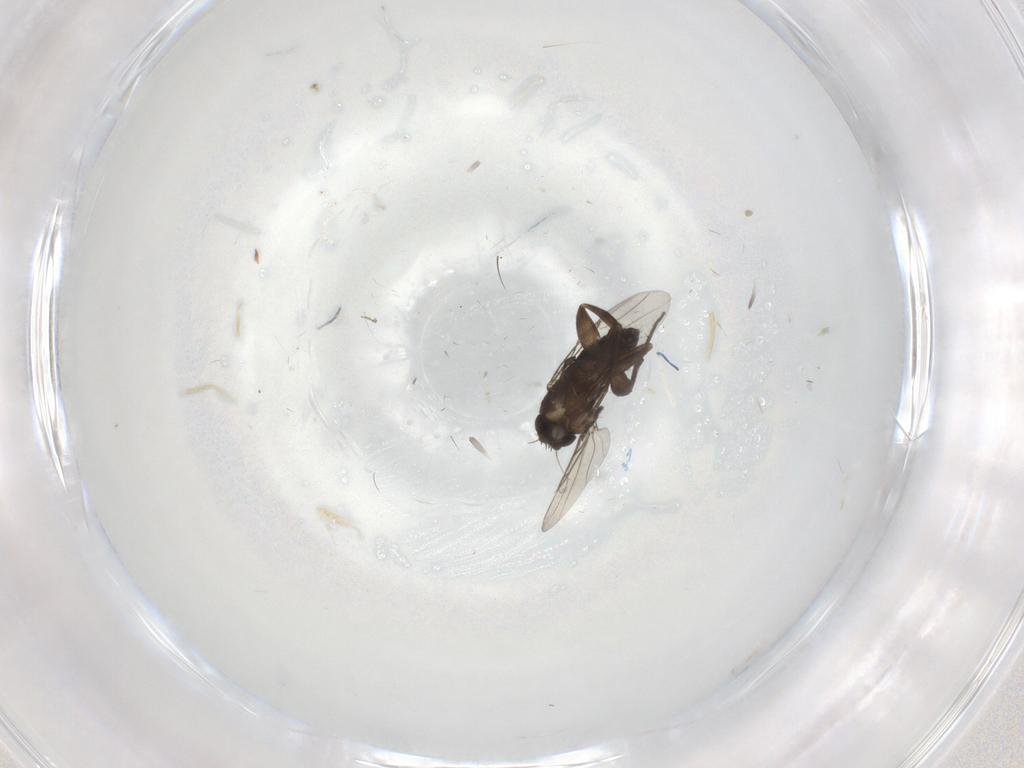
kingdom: Animalia
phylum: Arthropoda
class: Insecta
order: Diptera
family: Phoridae
